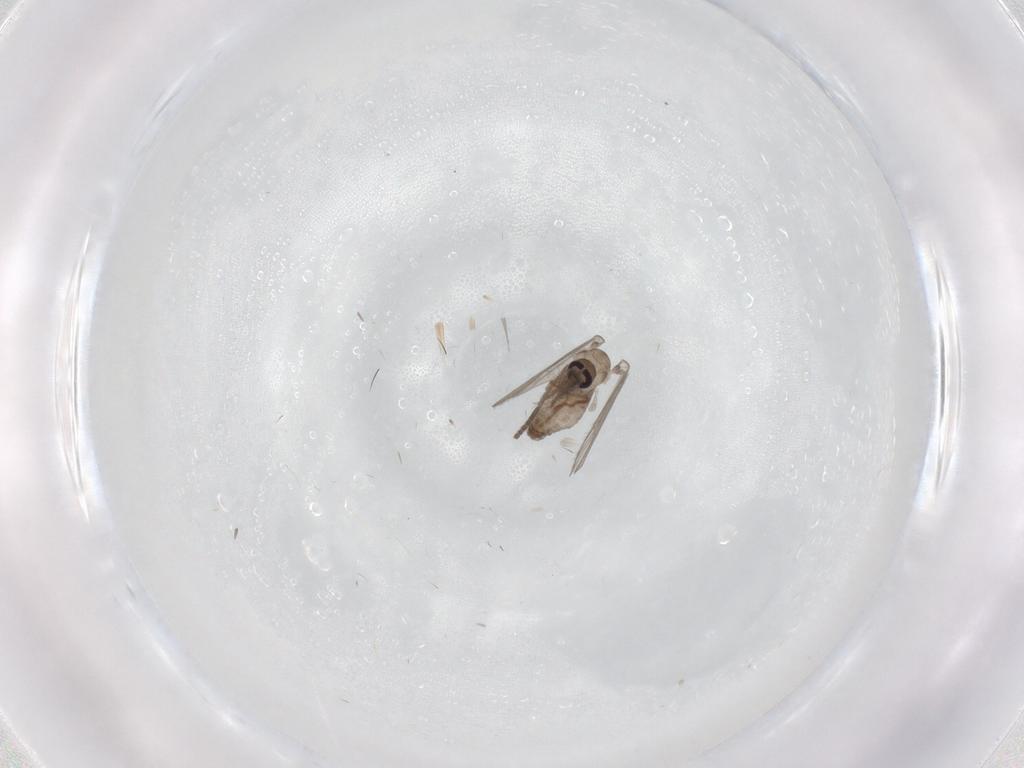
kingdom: Animalia
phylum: Arthropoda
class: Insecta
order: Diptera
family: Psychodidae
